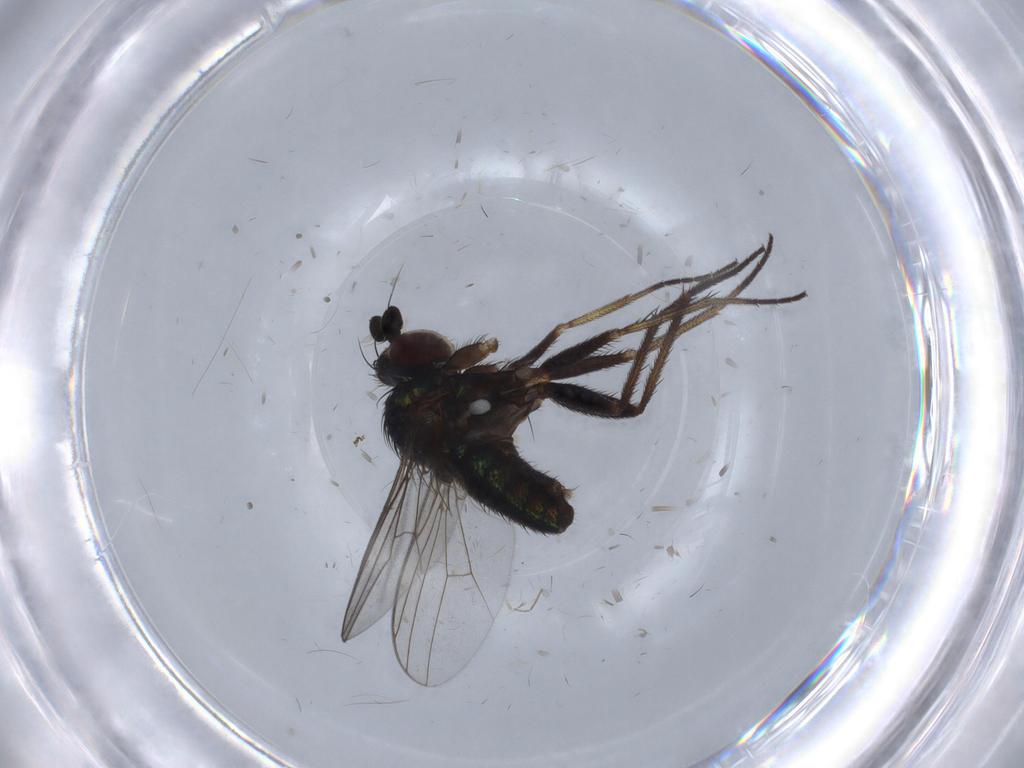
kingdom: Animalia
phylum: Arthropoda
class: Insecta
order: Diptera
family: Dolichopodidae
